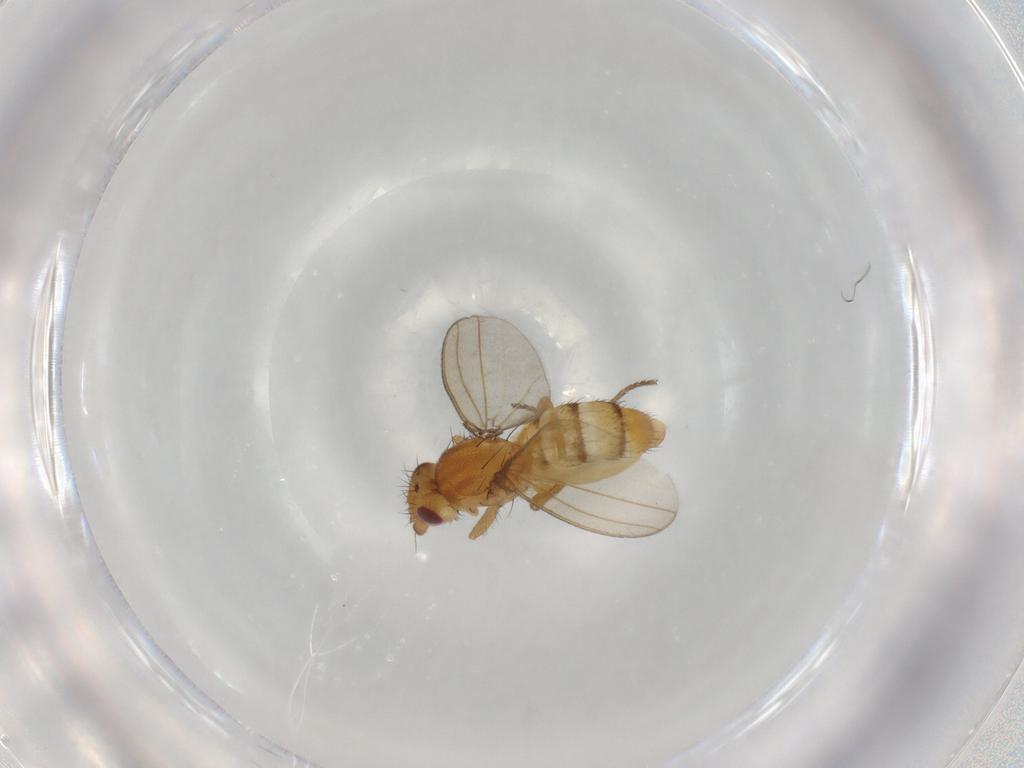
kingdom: Animalia
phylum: Arthropoda
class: Insecta
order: Diptera
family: Milichiidae
